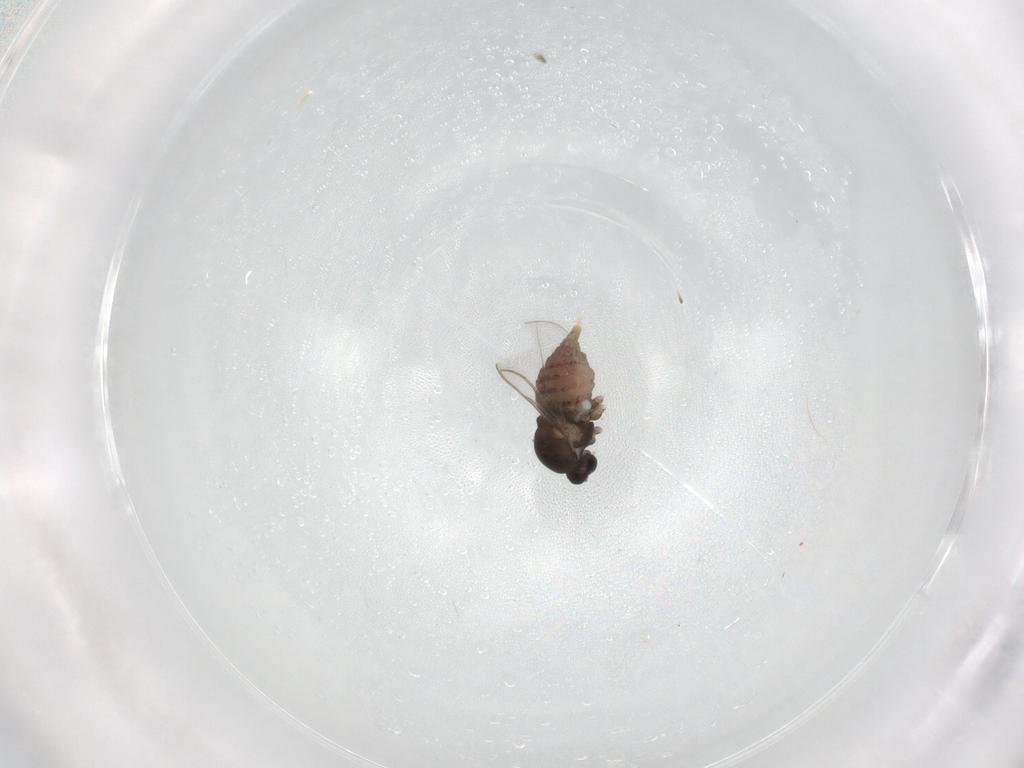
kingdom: Animalia
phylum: Arthropoda
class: Insecta
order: Diptera
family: Cecidomyiidae
